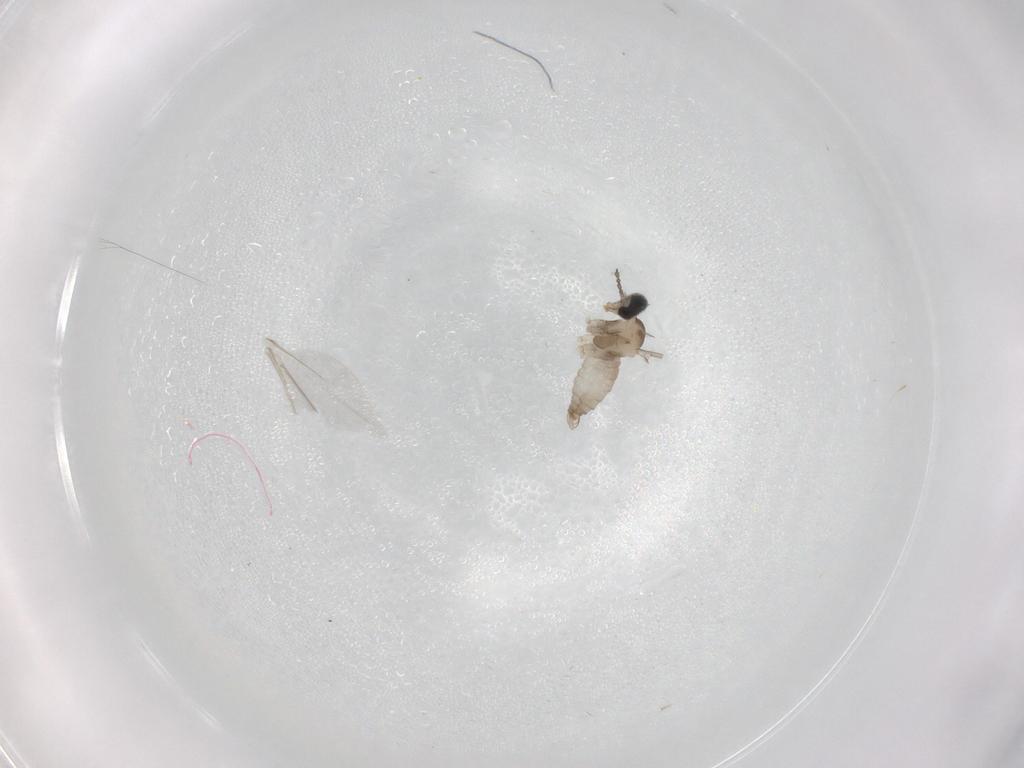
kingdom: Animalia
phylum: Arthropoda
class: Insecta
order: Diptera
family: Cecidomyiidae
